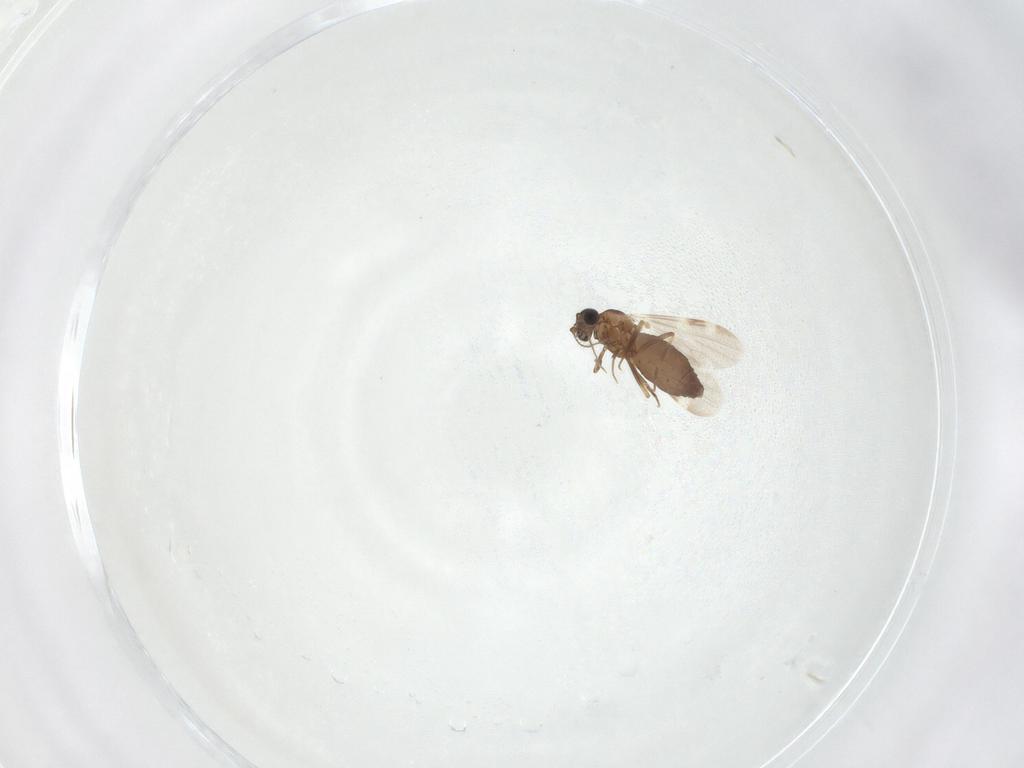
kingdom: Animalia
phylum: Arthropoda
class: Insecta
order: Diptera
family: Ceratopogonidae
